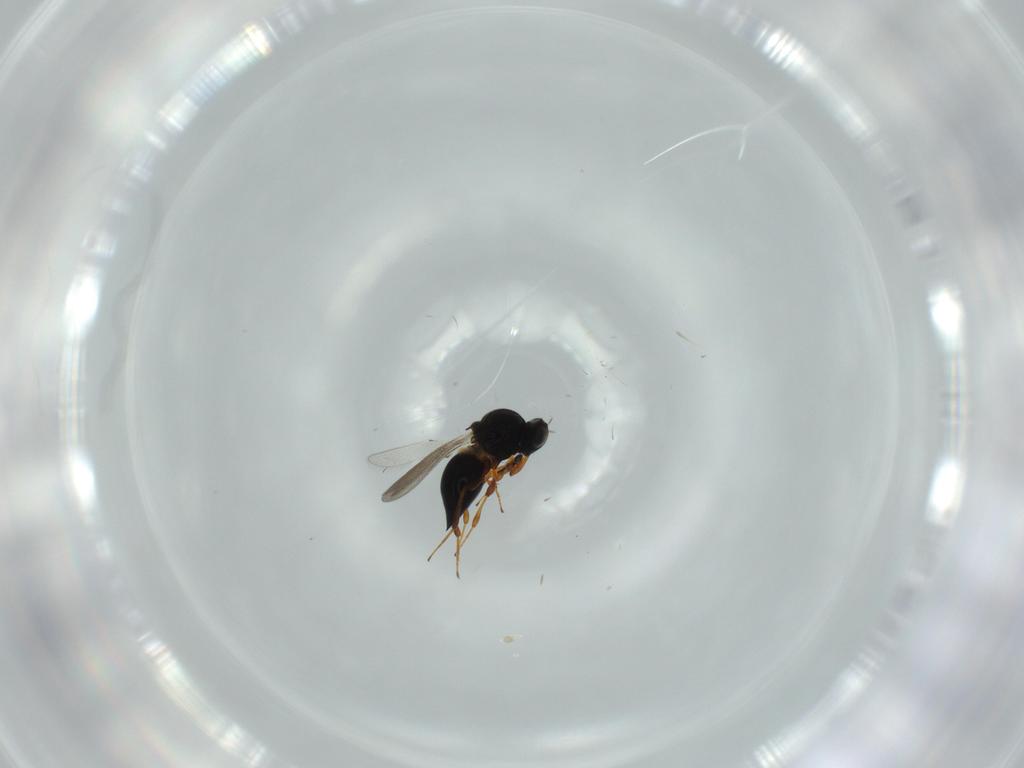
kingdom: Animalia
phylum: Arthropoda
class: Insecta
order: Hymenoptera
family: Platygastridae
